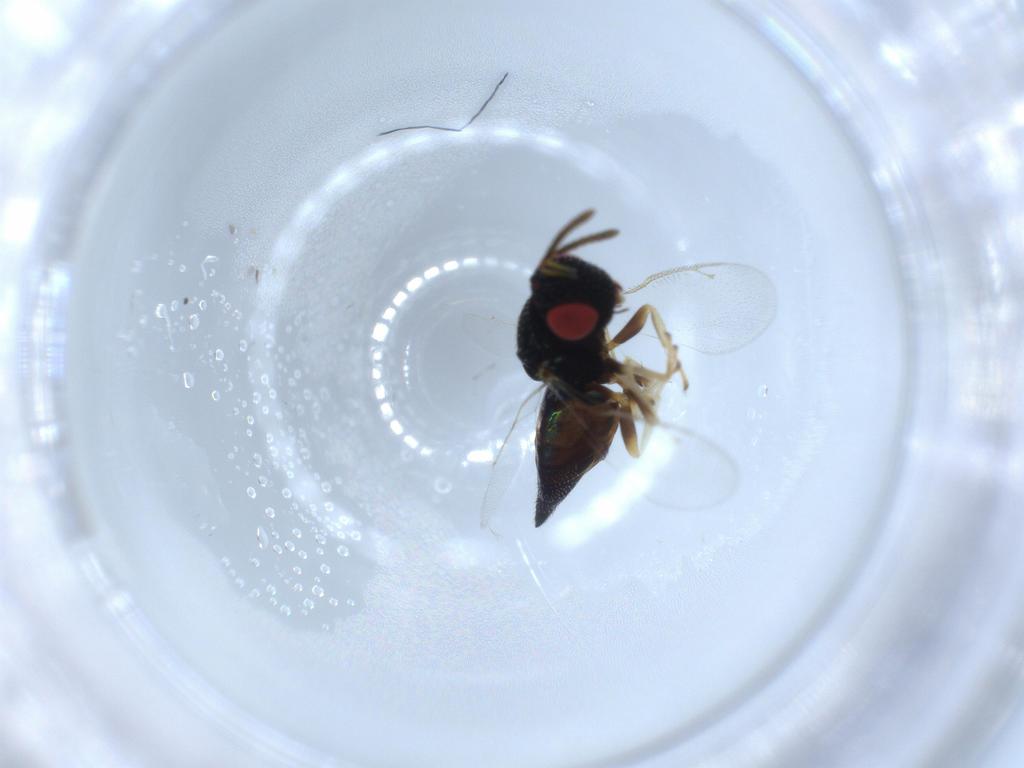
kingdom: Animalia
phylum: Arthropoda
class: Insecta
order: Hymenoptera
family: Pteromalidae
